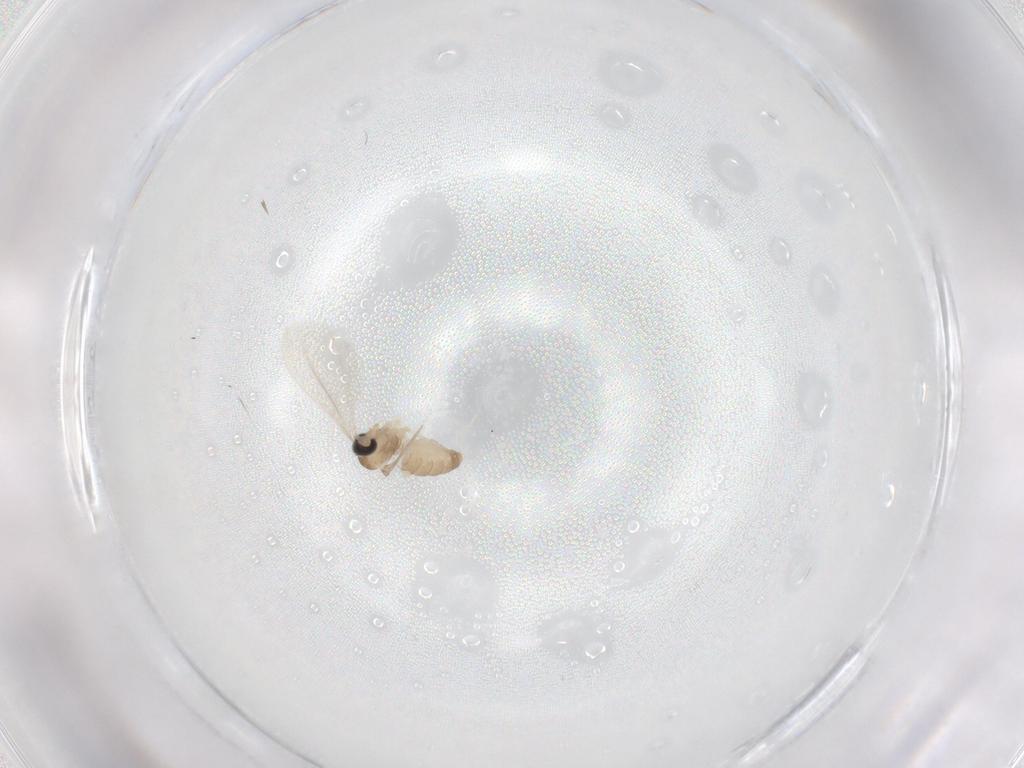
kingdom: Animalia
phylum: Arthropoda
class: Insecta
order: Diptera
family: Cecidomyiidae
